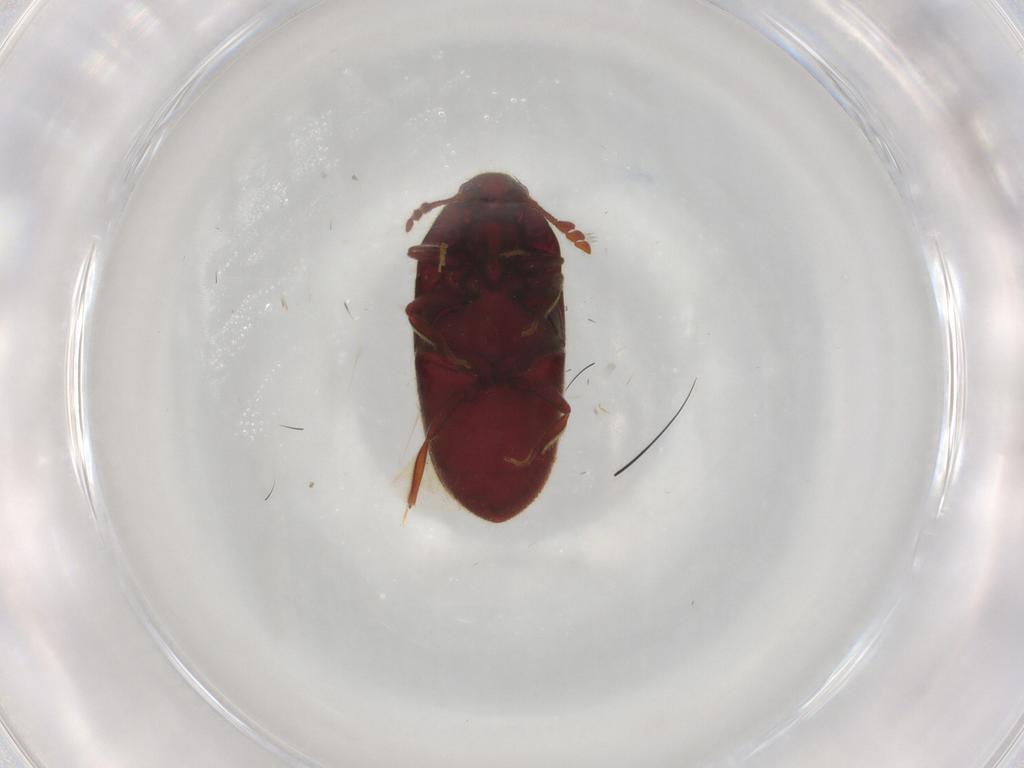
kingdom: Animalia
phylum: Arthropoda
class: Insecta
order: Coleoptera
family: Throscidae
